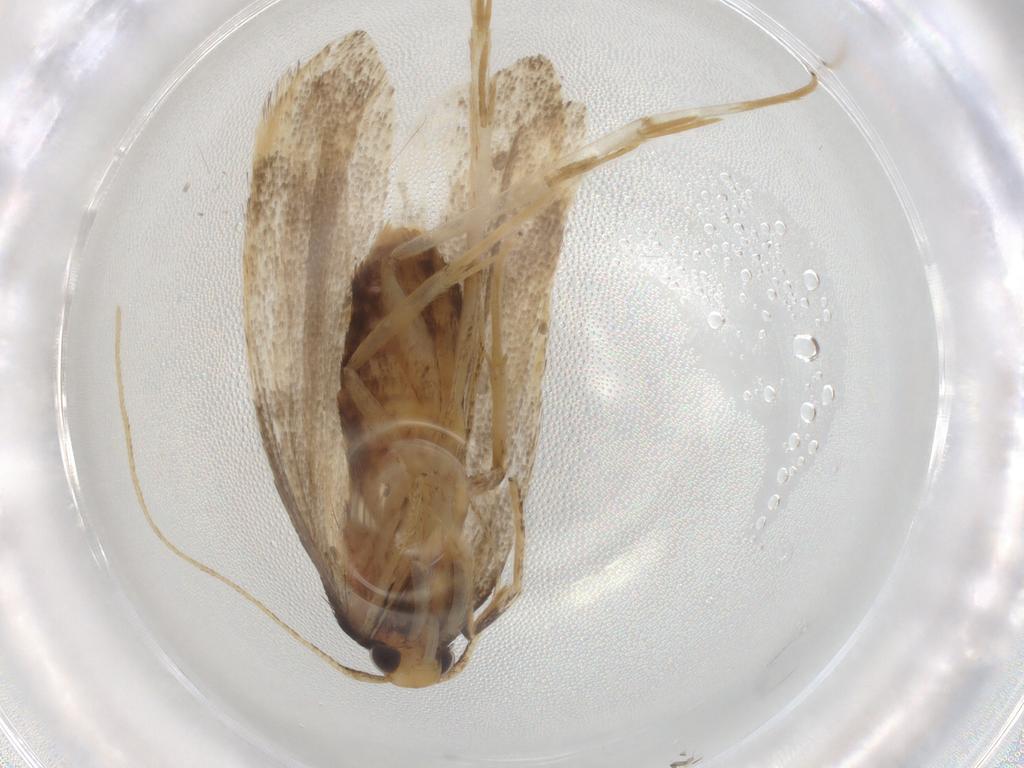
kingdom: Animalia
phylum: Arthropoda
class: Insecta
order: Lepidoptera
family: Lecithoceridae
